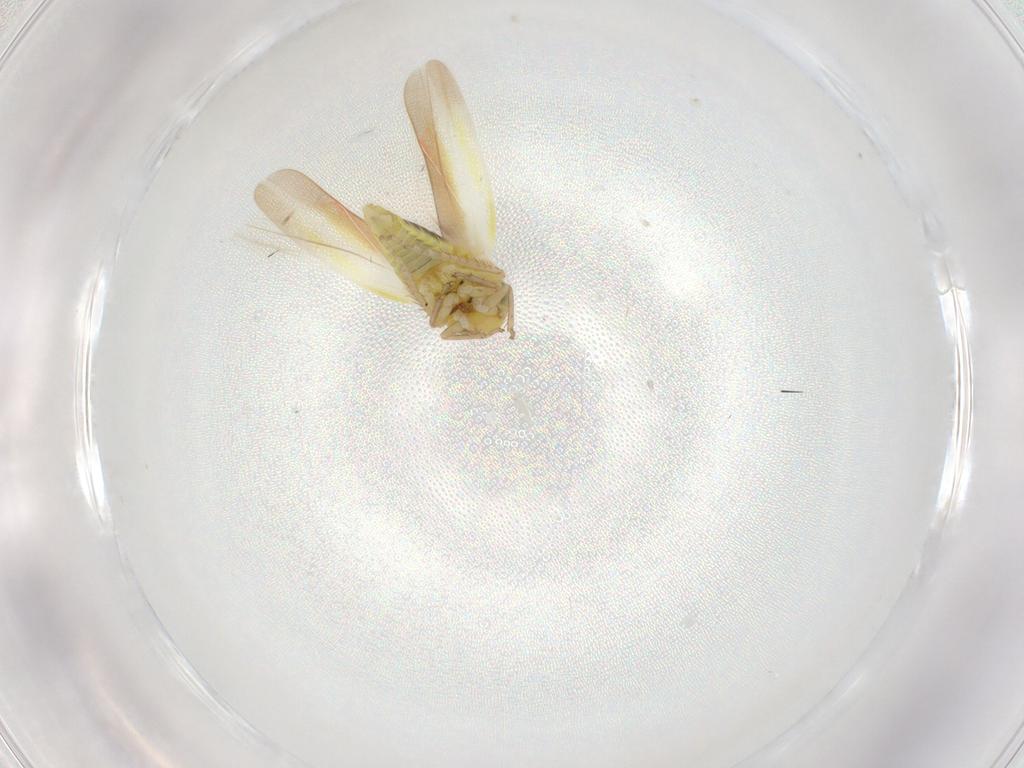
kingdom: Animalia
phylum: Arthropoda
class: Insecta
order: Hemiptera
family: Cicadellidae
